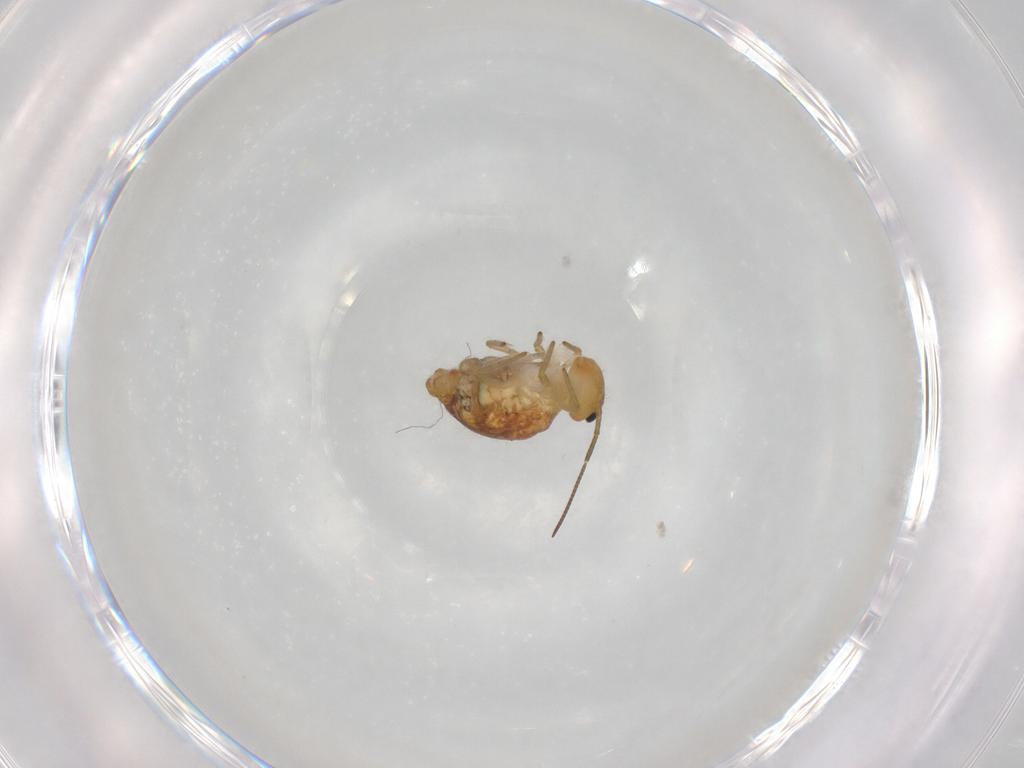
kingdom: Animalia
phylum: Arthropoda
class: Collembola
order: Symphypleona
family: Sminthuridae
